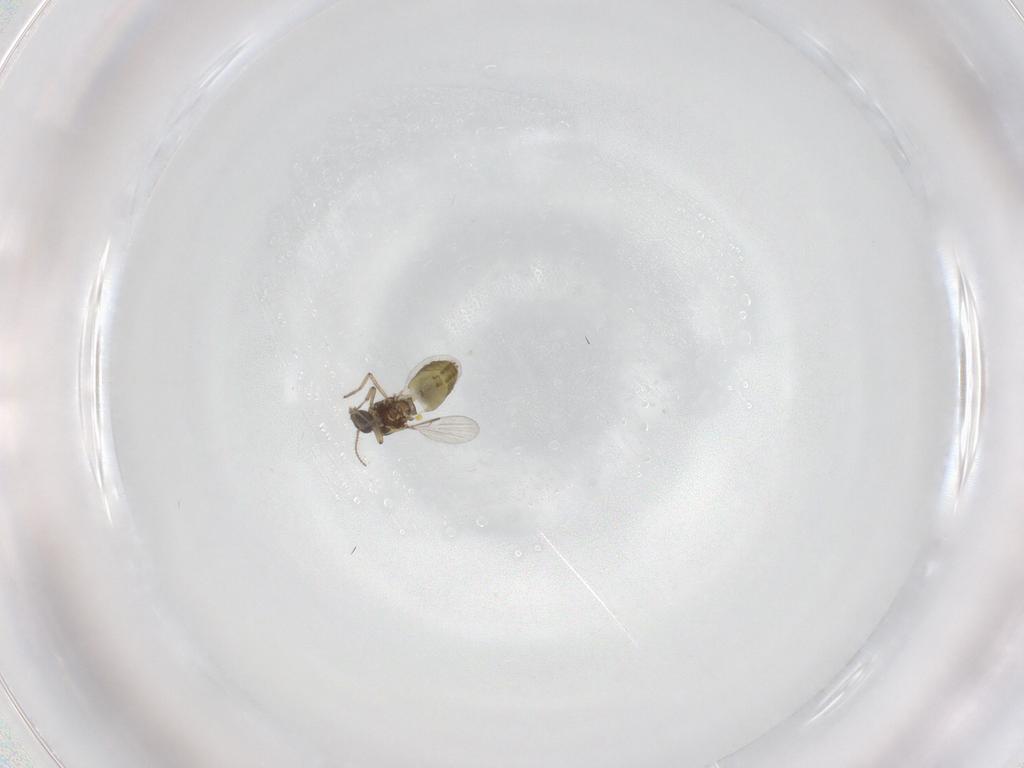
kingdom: Animalia
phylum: Arthropoda
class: Insecta
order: Diptera
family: Ceratopogonidae
